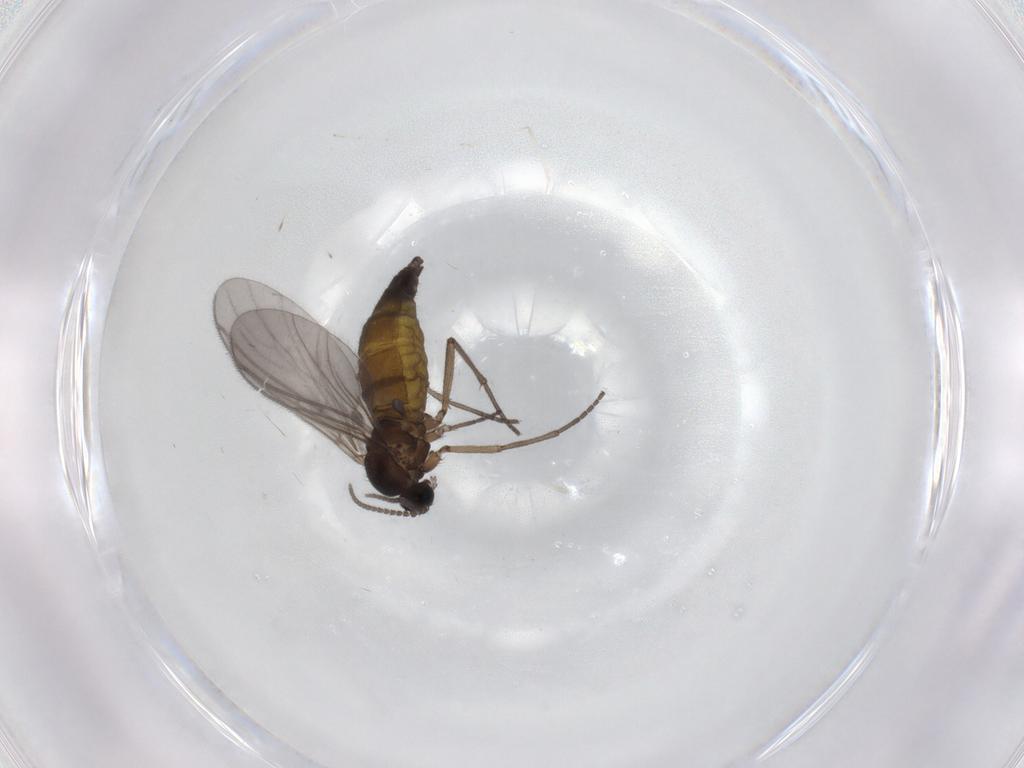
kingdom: Animalia
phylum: Arthropoda
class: Insecta
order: Diptera
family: Sciaridae
